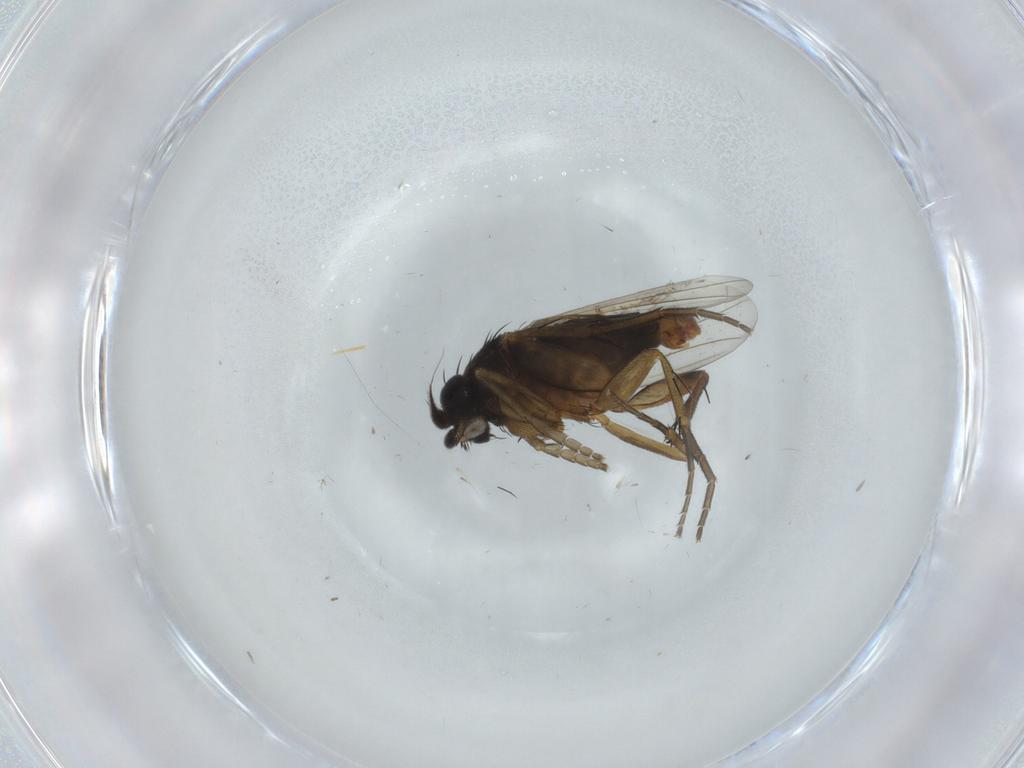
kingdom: Animalia
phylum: Arthropoda
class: Insecta
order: Diptera
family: Phoridae
